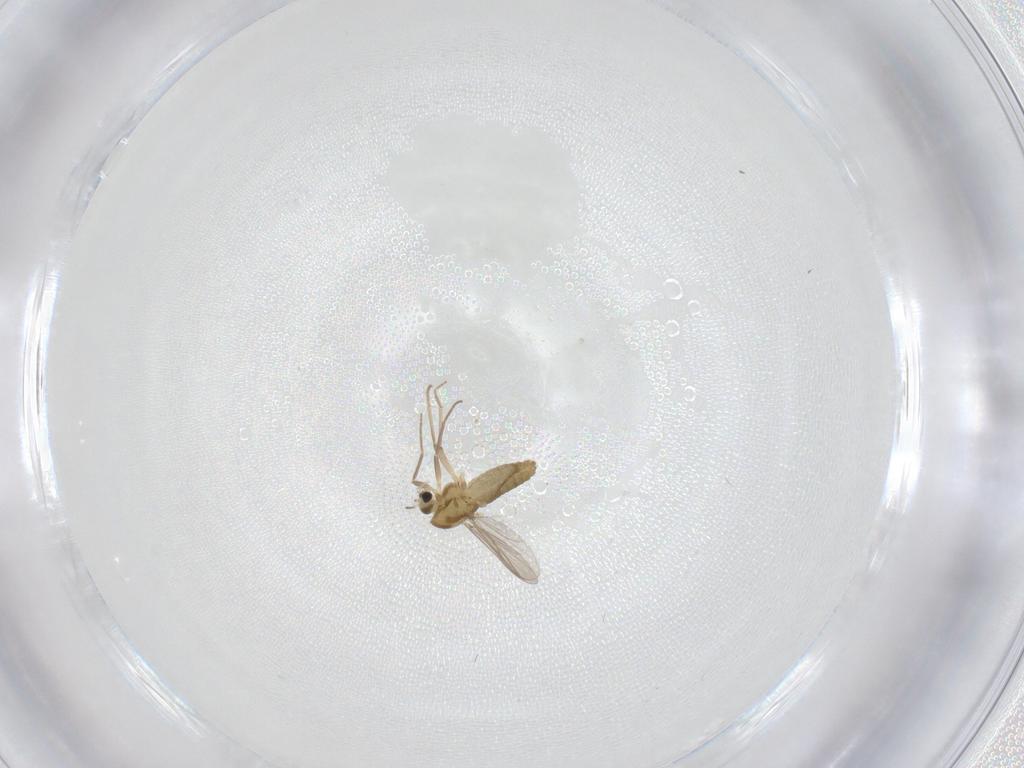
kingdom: Animalia
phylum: Arthropoda
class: Insecta
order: Diptera
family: Chironomidae
